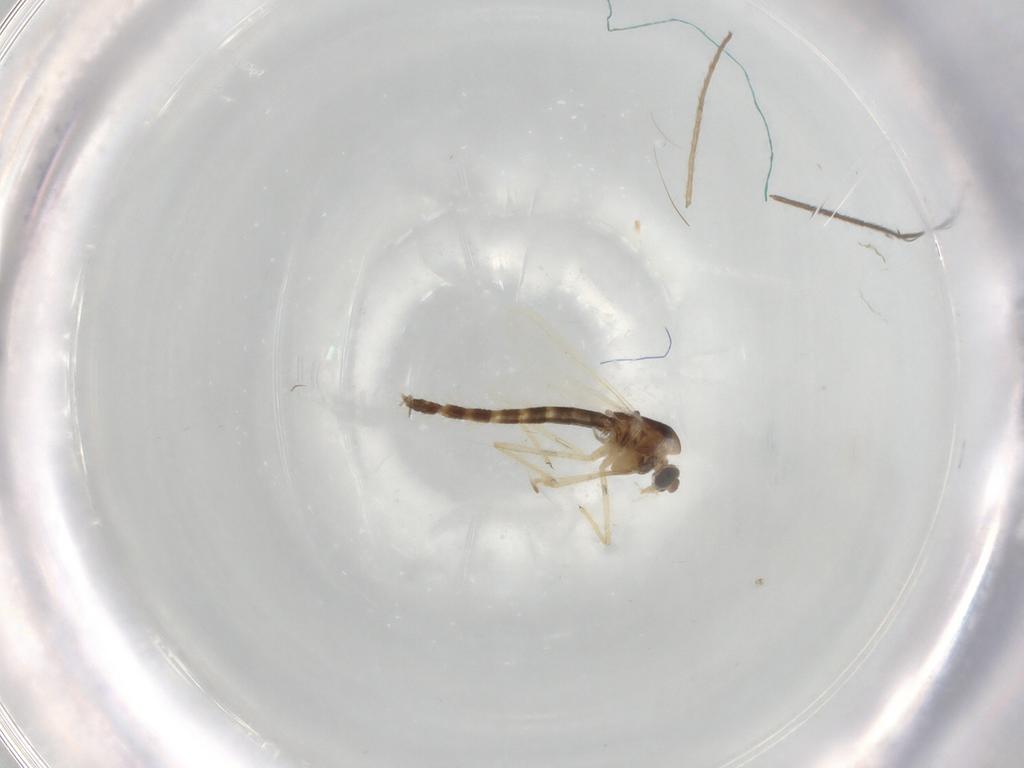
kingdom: Animalia
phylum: Arthropoda
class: Insecta
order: Diptera
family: Chironomidae
